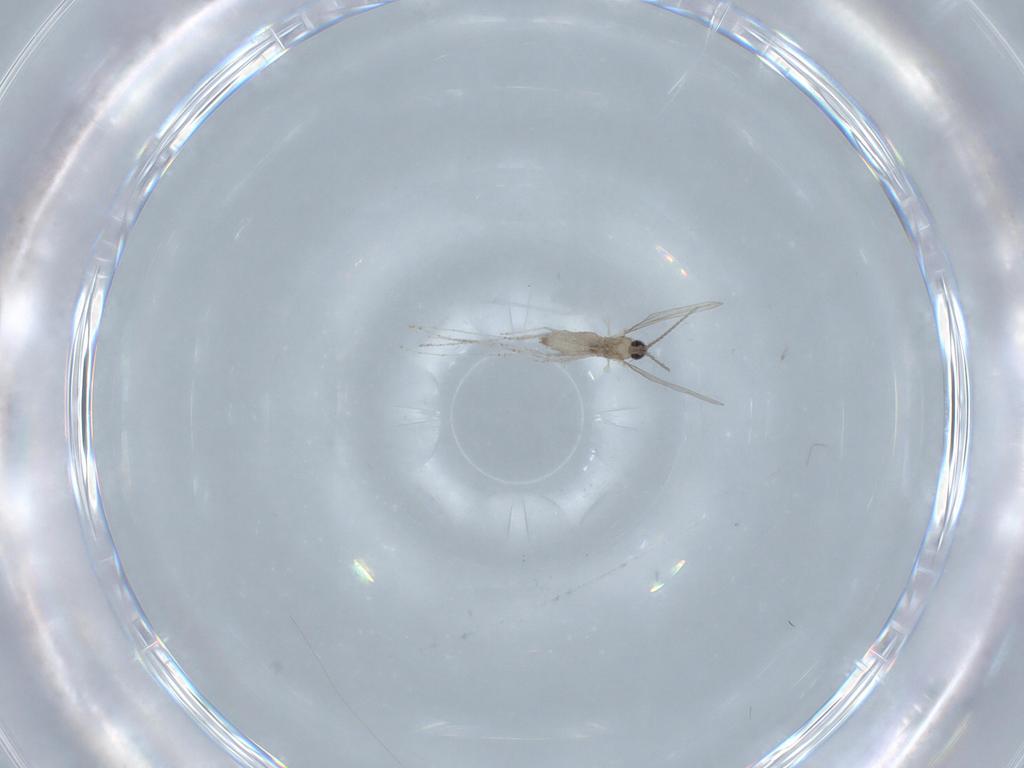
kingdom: Animalia
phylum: Arthropoda
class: Insecta
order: Diptera
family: Cecidomyiidae
